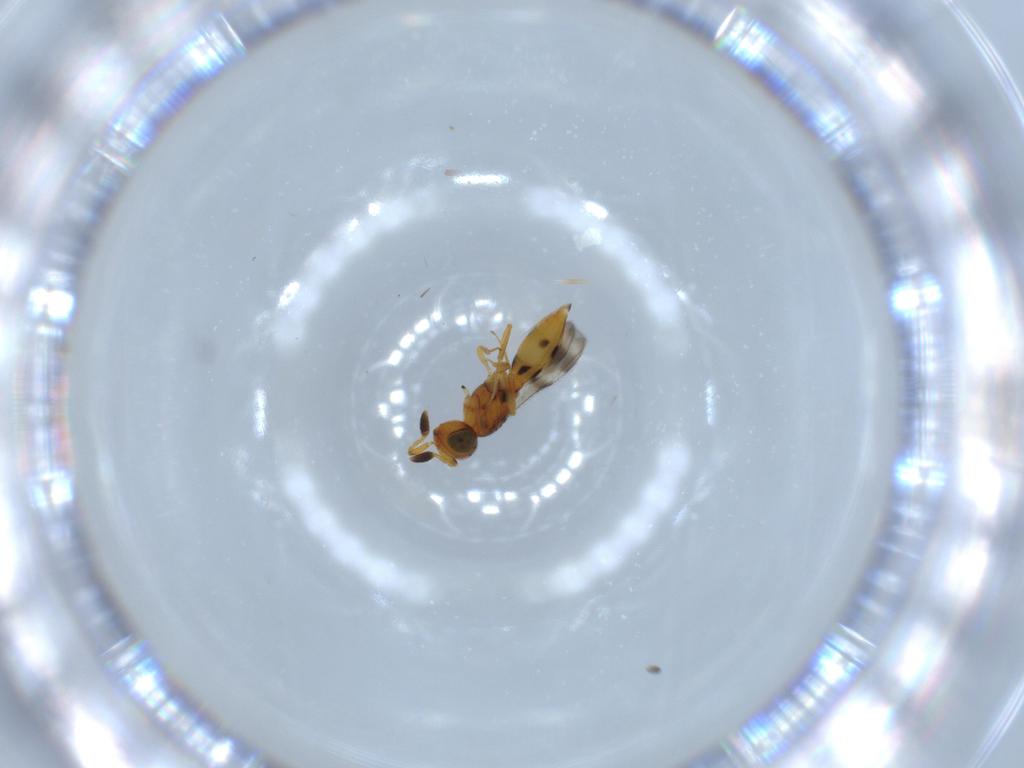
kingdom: Animalia
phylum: Arthropoda
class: Insecta
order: Hymenoptera
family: Scelionidae
